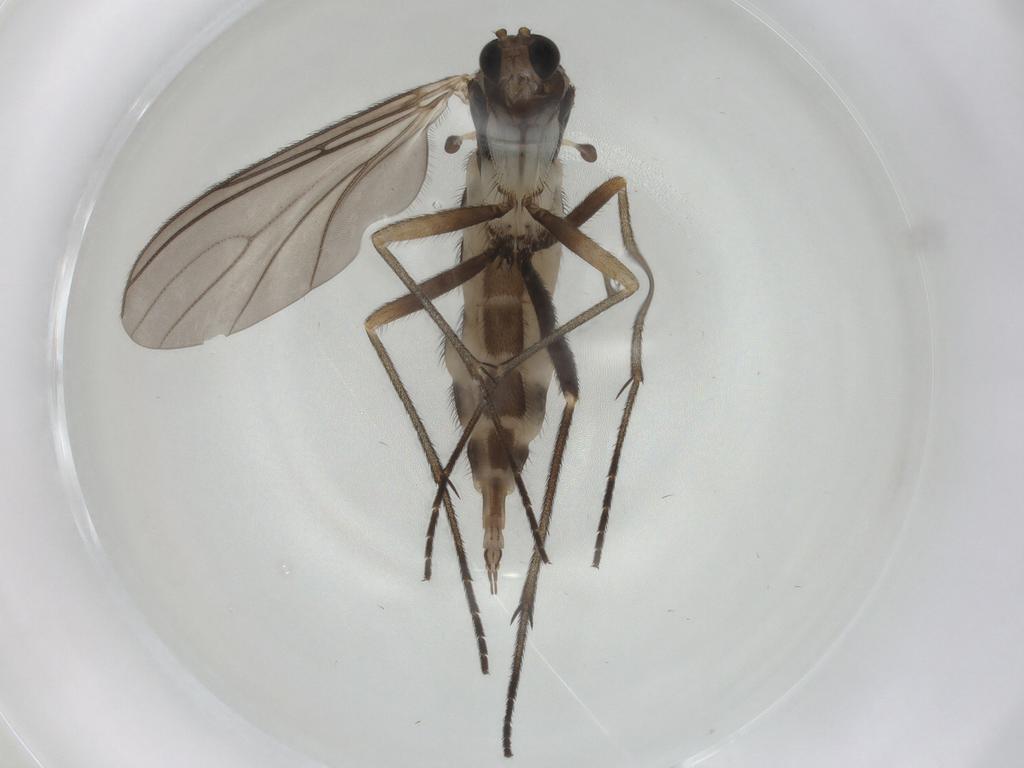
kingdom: Animalia
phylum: Arthropoda
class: Insecta
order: Diptera
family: Sciaridae
